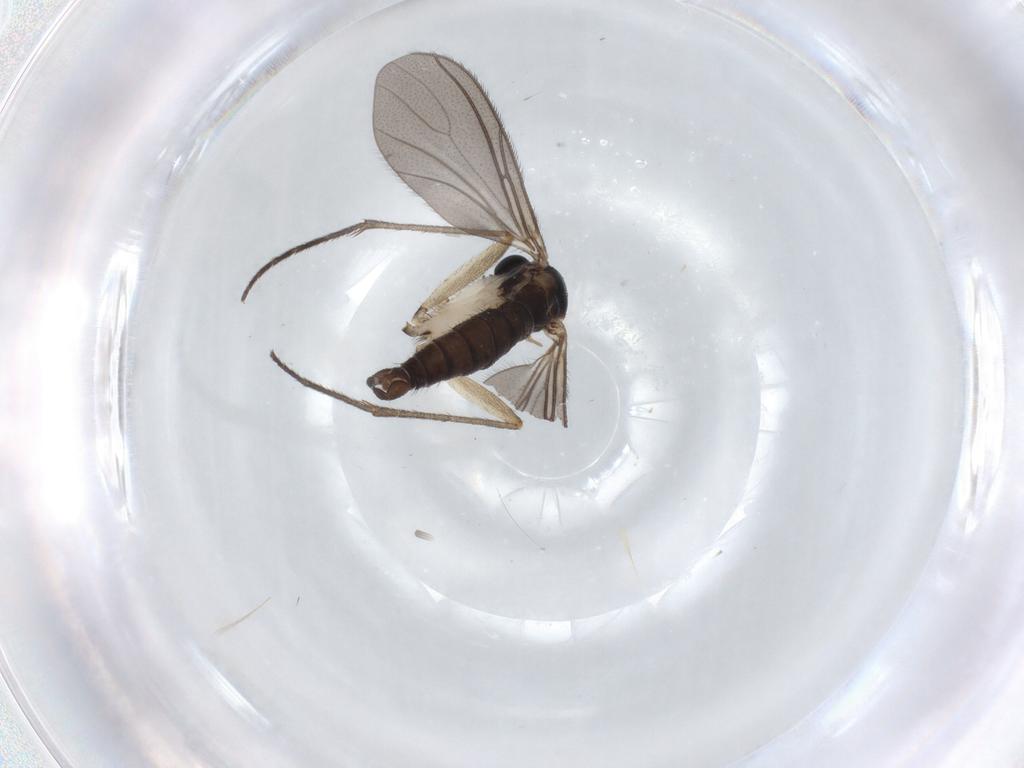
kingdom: Animalia
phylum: Arthropoda
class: Insecta
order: Diptera
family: Sciaridae
